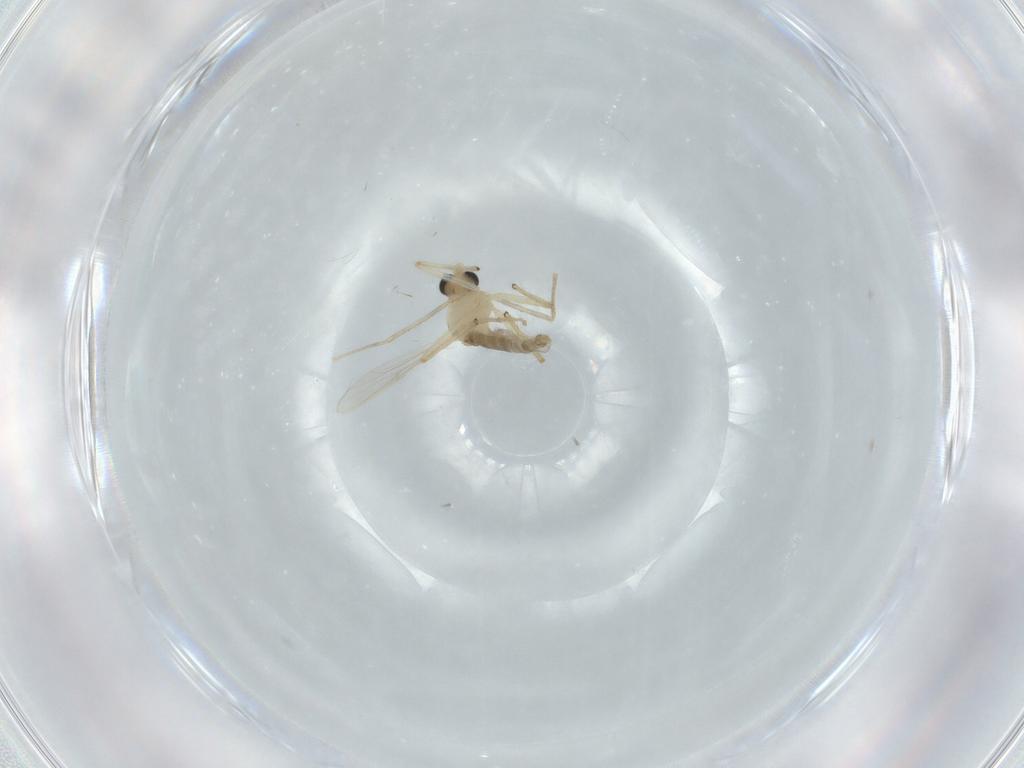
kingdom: Animalia
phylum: Arthropoda
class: Insecta
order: Diptera
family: Chironomidae
